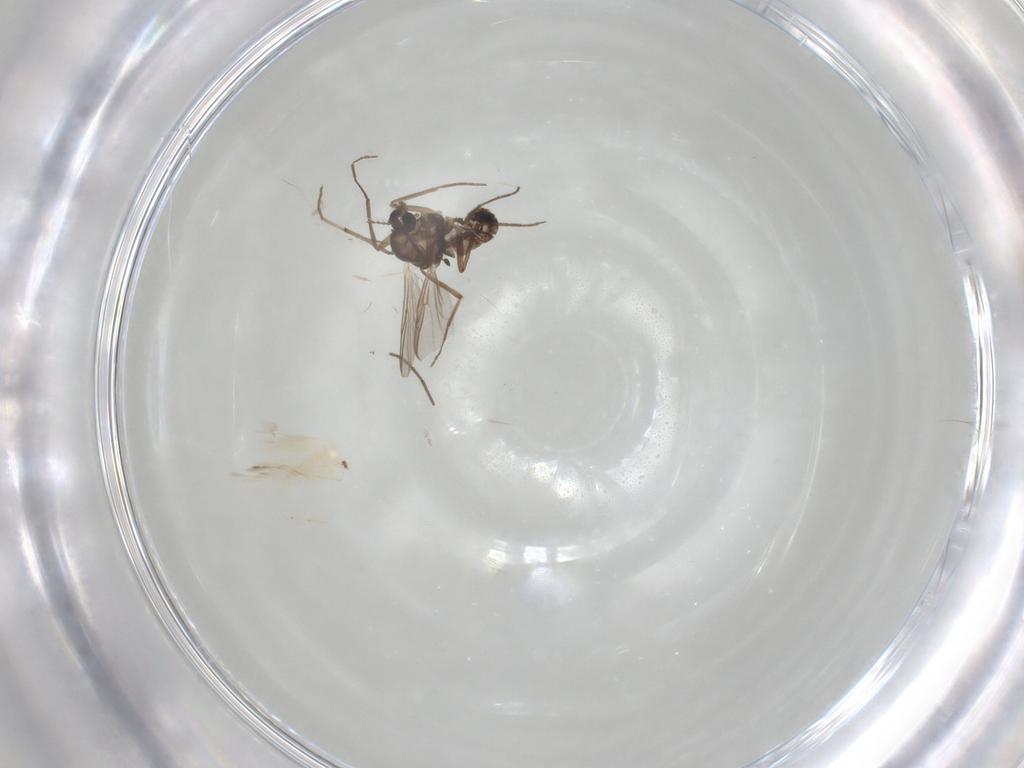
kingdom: Animalia
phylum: Arthropoda
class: Insecta
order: Diptera
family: Chironomidae
